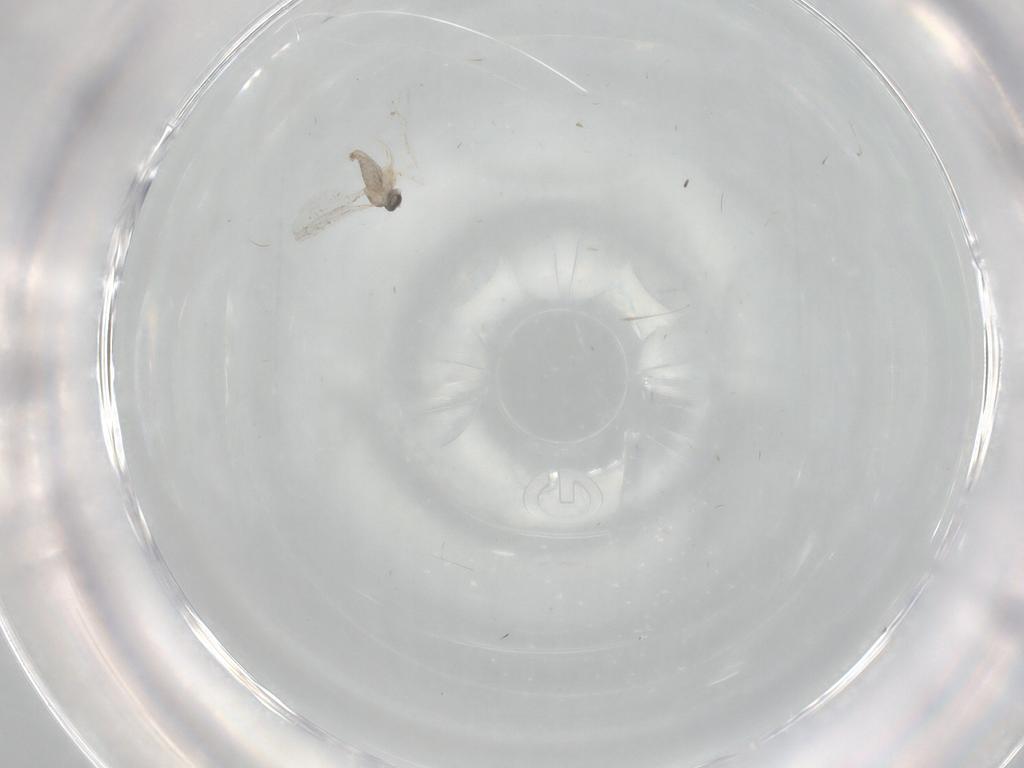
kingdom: Animalia
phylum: Arthropoda
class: Insecta
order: Diptera
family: Cecidomyiidae
